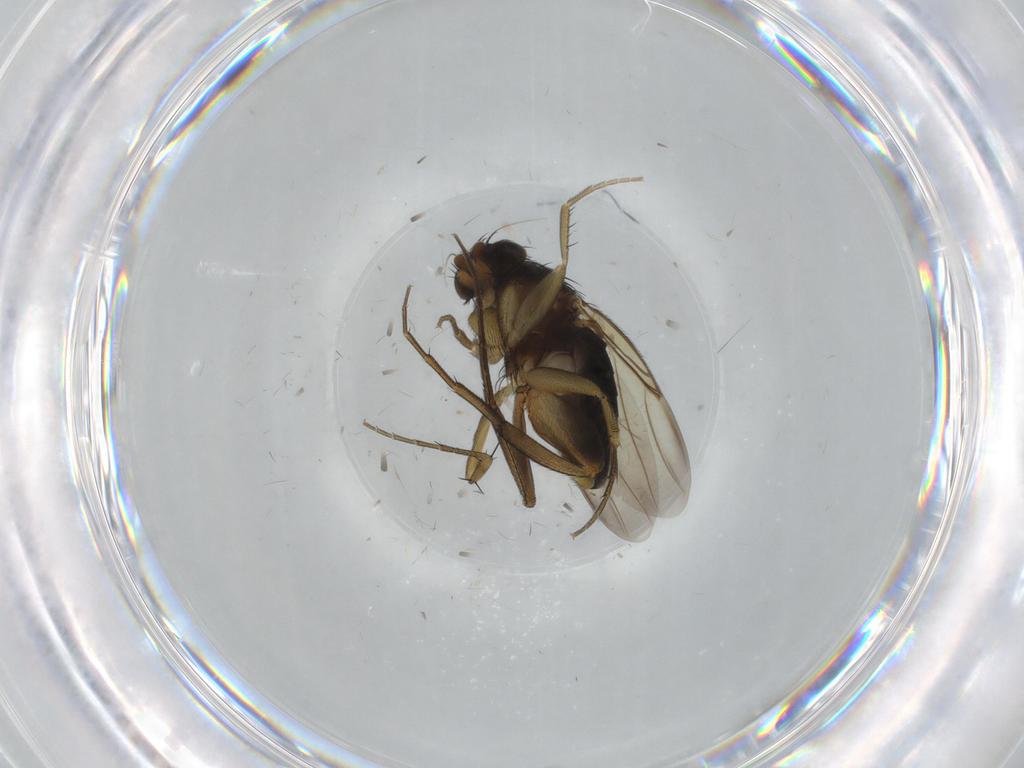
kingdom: Animalia
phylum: Arthropoda
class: Insecta
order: Diptera
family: Phoridae
